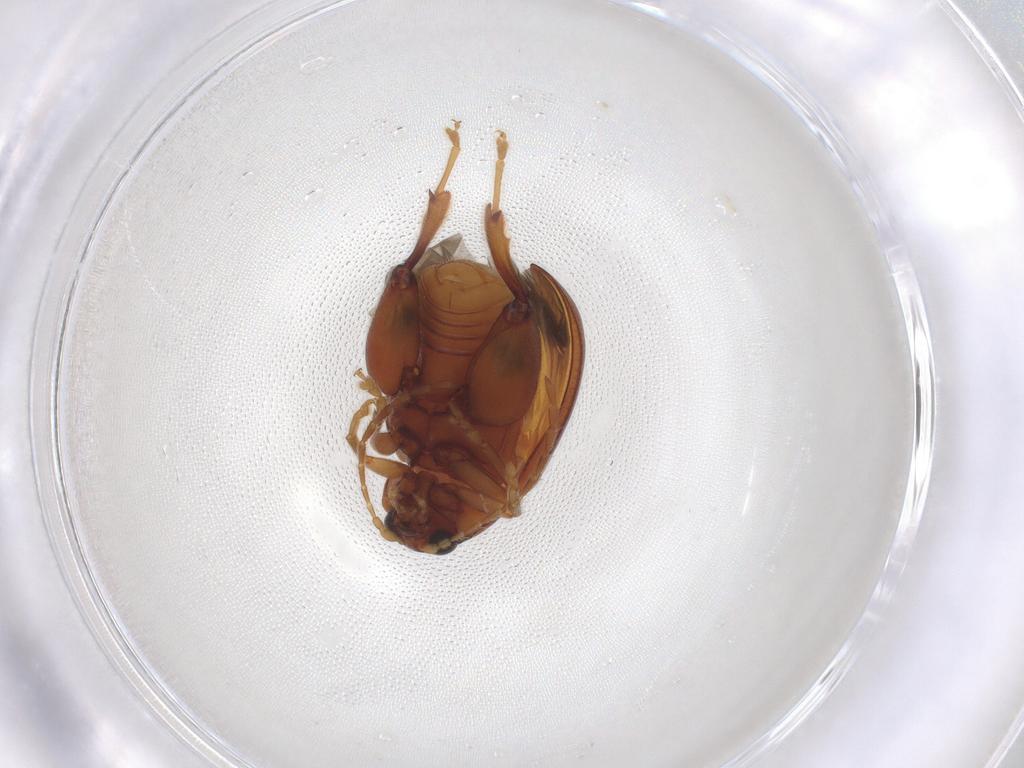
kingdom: Animalia
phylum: Arthropoda
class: Insecta
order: Coleoptera
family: Chrysomelidae
